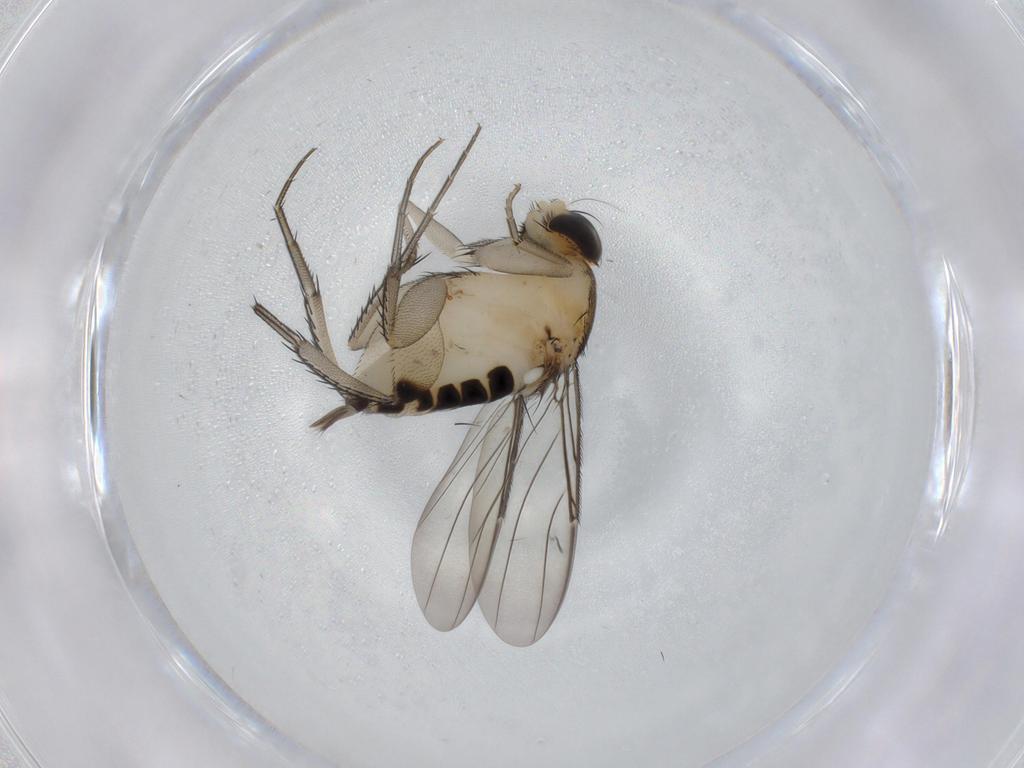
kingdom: Animalia
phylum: Arthropoda
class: Insecta
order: Diptera
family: Phoridae
